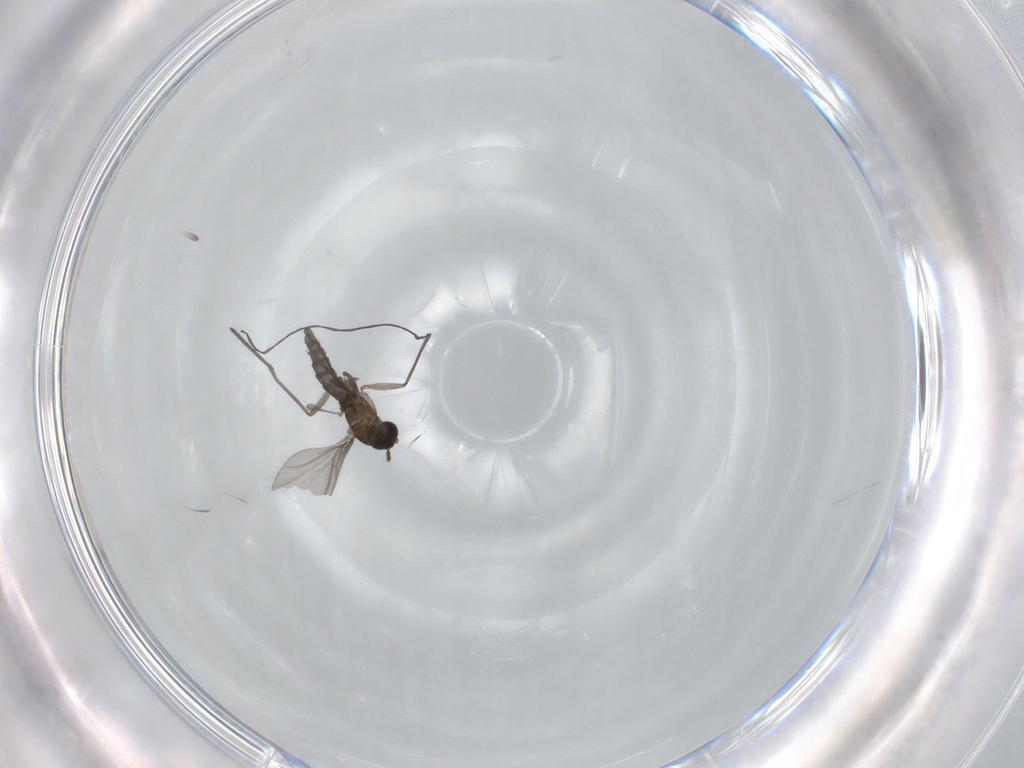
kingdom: Animalia
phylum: Arthropoda
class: Insecta
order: Diptera
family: Sciaridae
